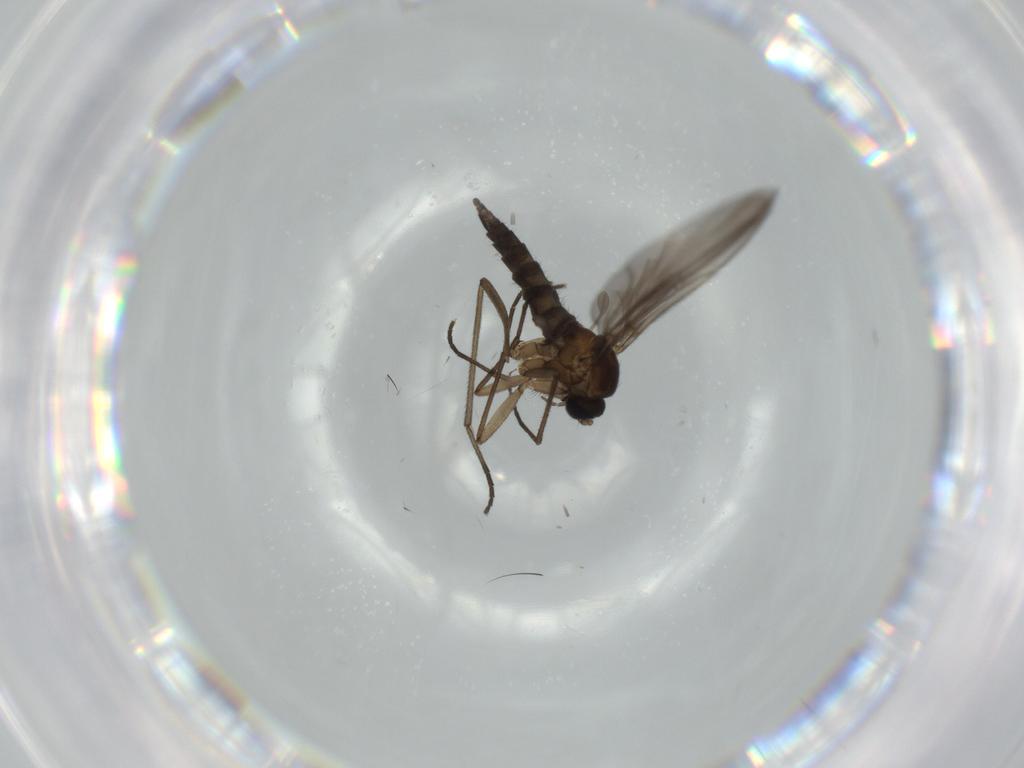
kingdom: Animalia
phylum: Arthropoda
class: Insecta
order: Diptera
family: Sciaridae
